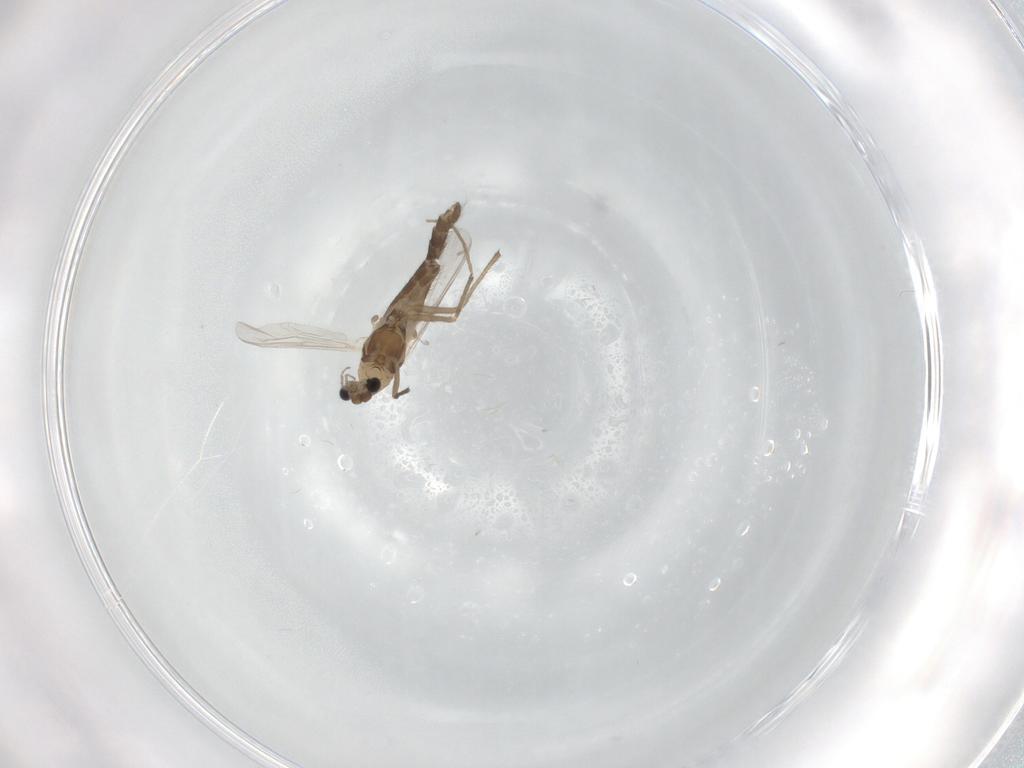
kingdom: Animalia
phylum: Arthropoda
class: Insecta
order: Diptera
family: Chironomidae
